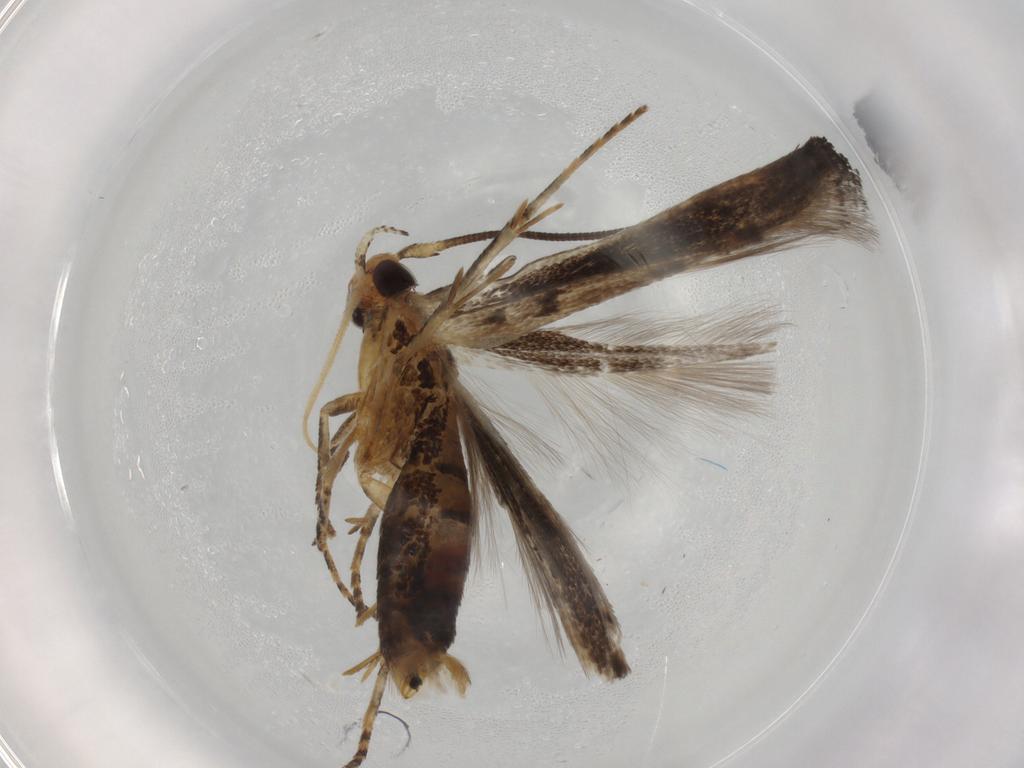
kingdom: Animalia
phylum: Arthropoda
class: Insecta
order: Lepidoptera
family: Gelechiidae
